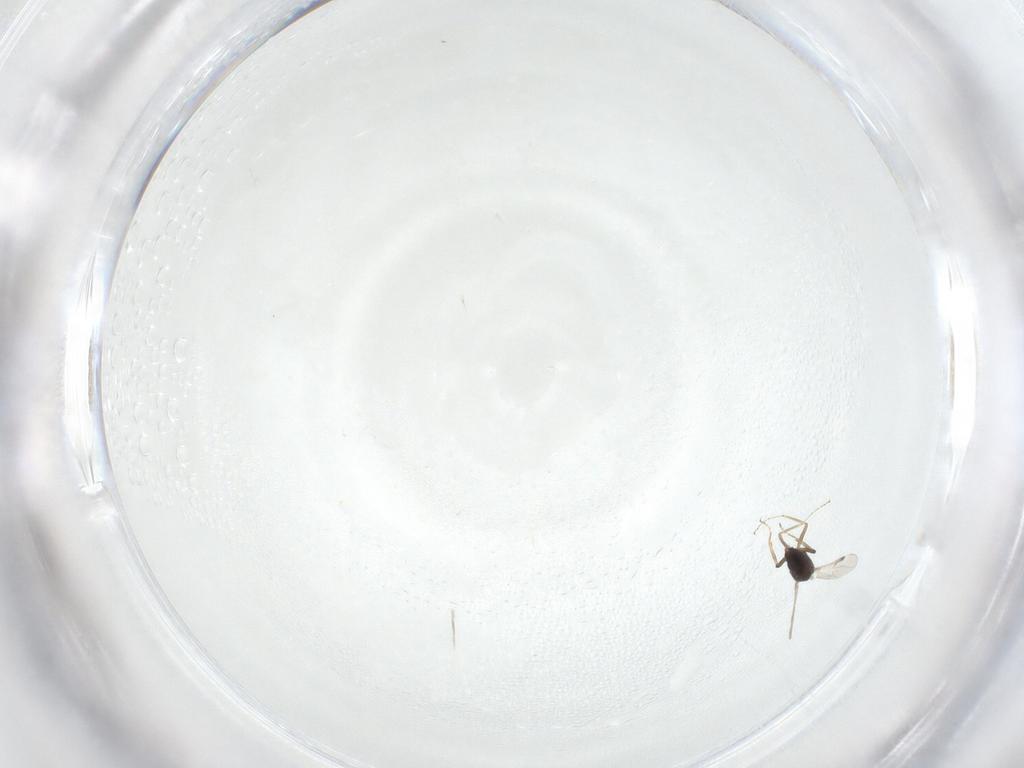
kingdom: Animalia
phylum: Arthropoda
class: Insecta
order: Diptera
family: Ceratopogonidae
